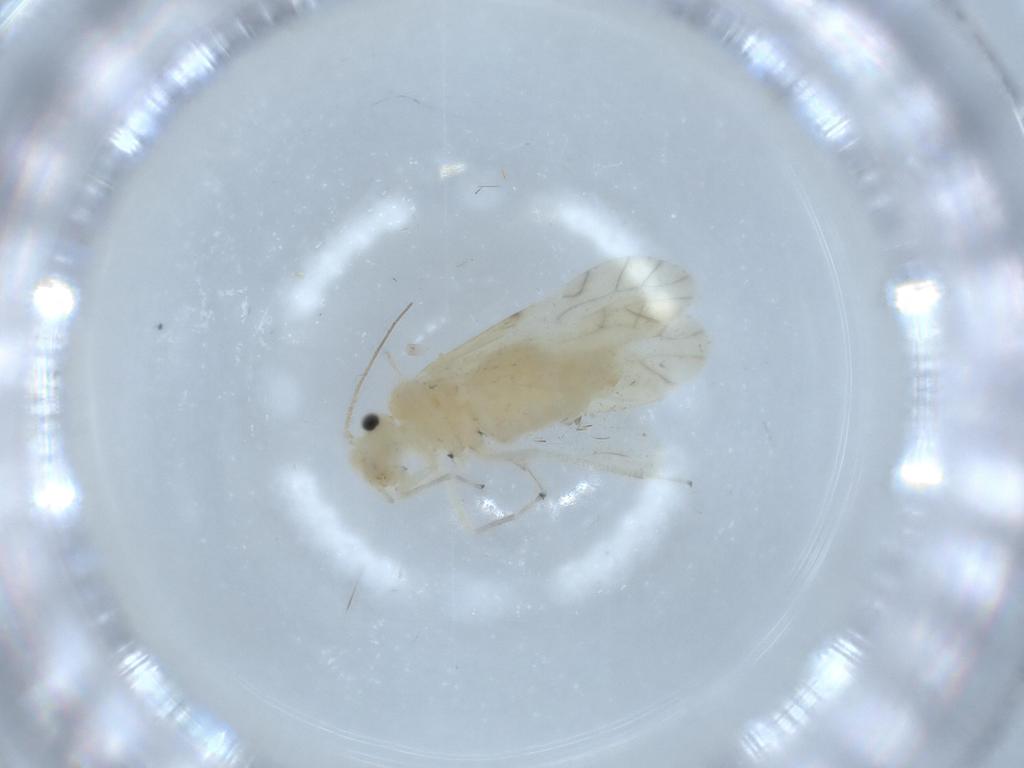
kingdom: Animalia
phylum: Arthropoda
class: Insecta
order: Psocodea
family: Caeciliusidae
